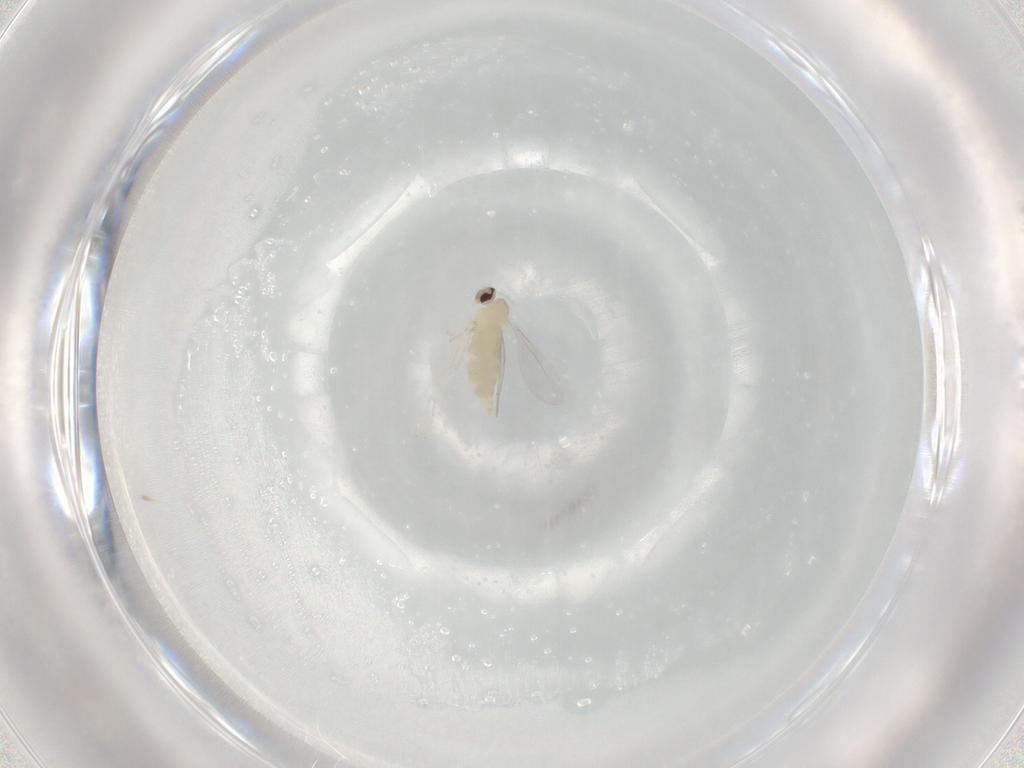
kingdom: Animalia
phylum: Arthropoda
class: Insecta
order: Diptera
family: Cecidomyiidae
